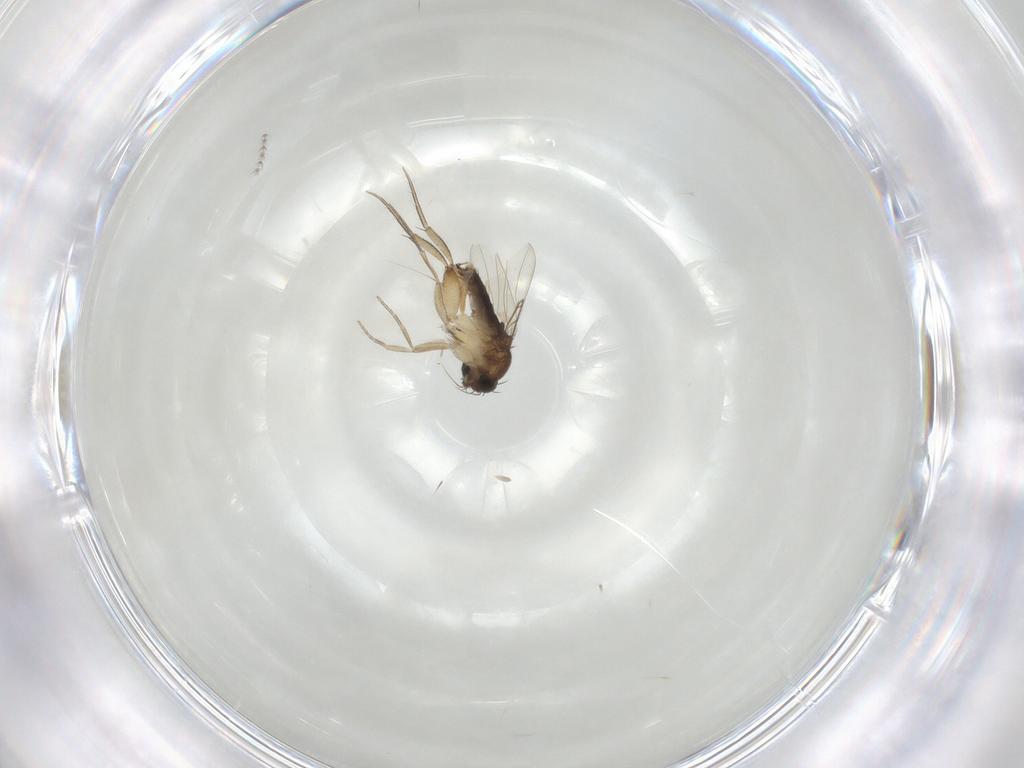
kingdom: Animalia
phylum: Arthropoda
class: Insecta
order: Diptera
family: Phoridae
